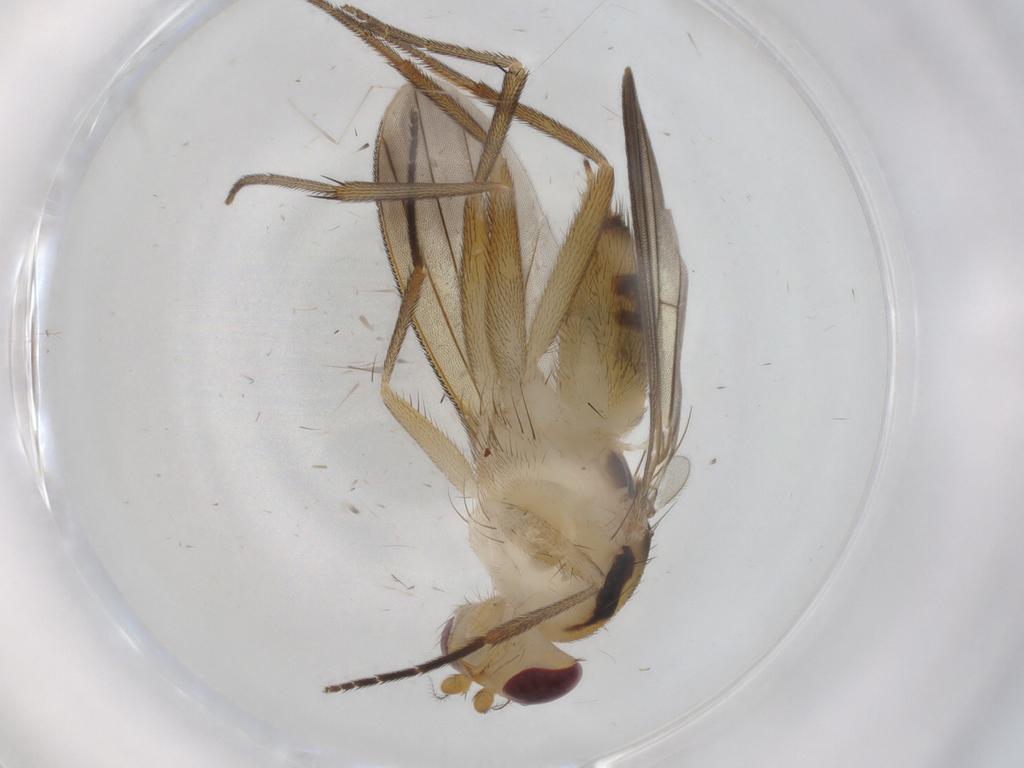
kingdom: Animalia
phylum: Arthropoda
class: Insecta
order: Diptera
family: Clusiidae
